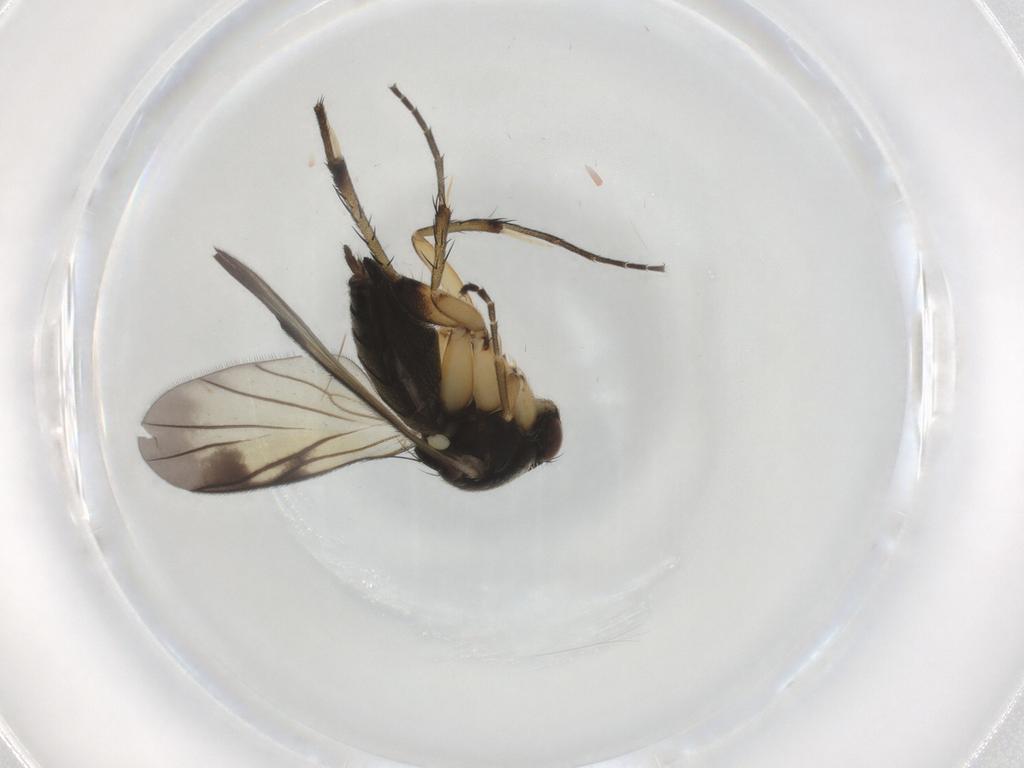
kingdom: Animalia
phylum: Arthropoda
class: Insecta
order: Diptera
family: Mycetophilidae
